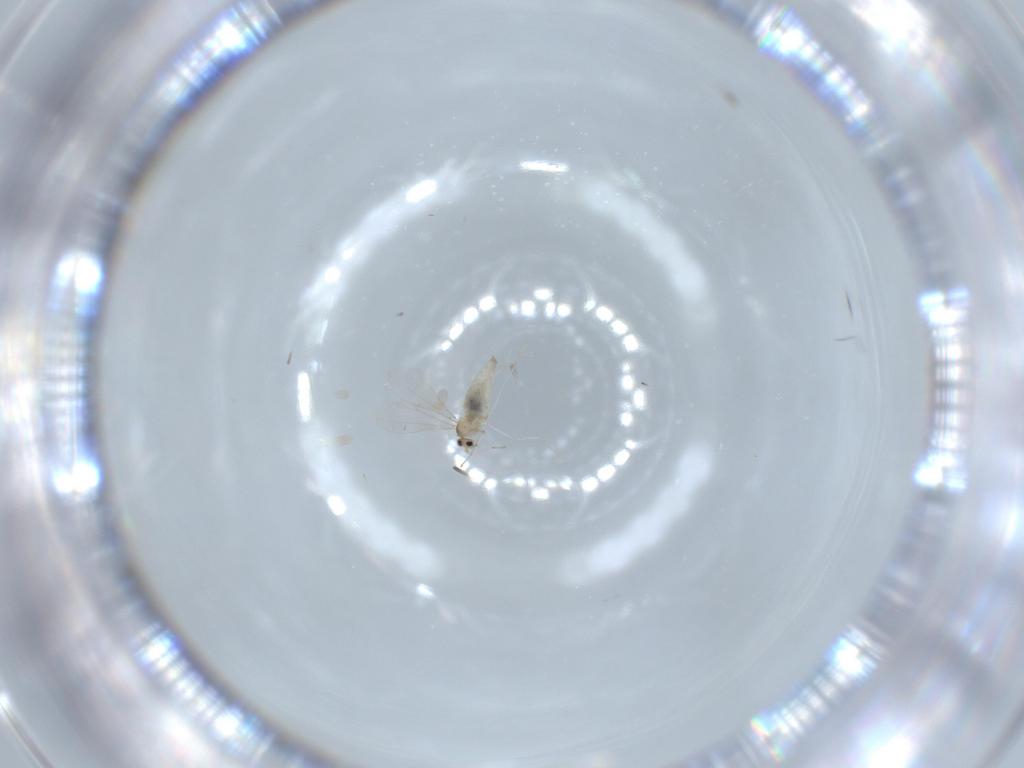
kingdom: Animalia
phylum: Arthropoda
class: Insecta
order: Diptera
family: Cecidomyiidae
